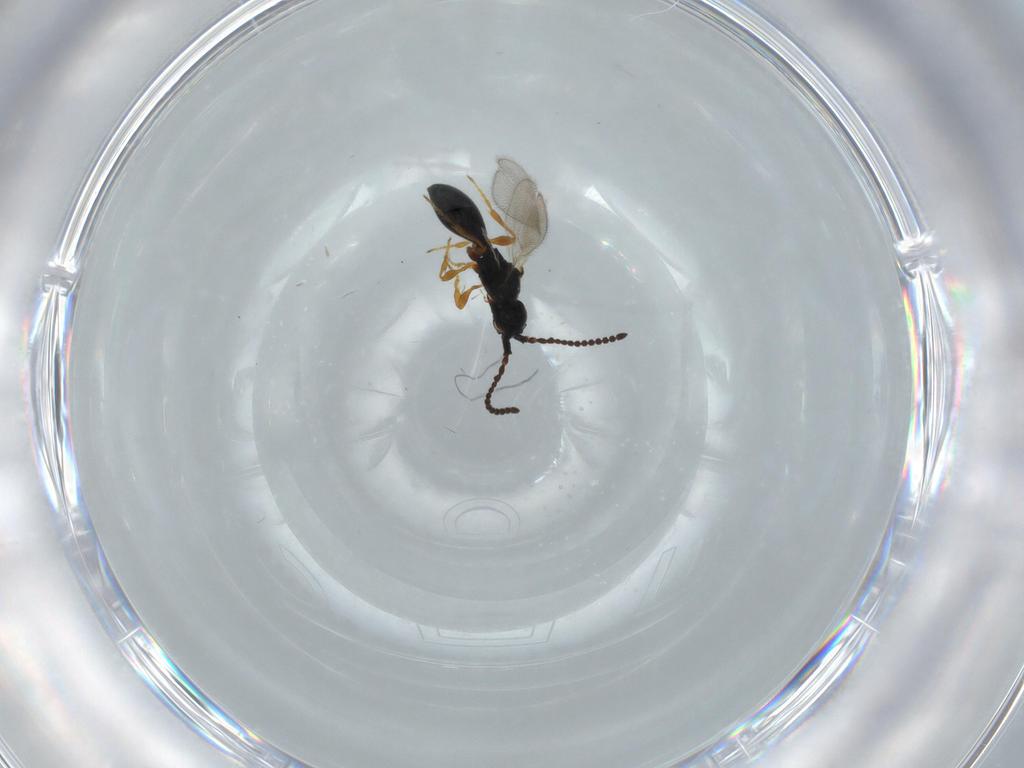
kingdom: Animalia
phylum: Arthropoda
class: Insecta
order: Hymenoptera
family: Diapriidae
